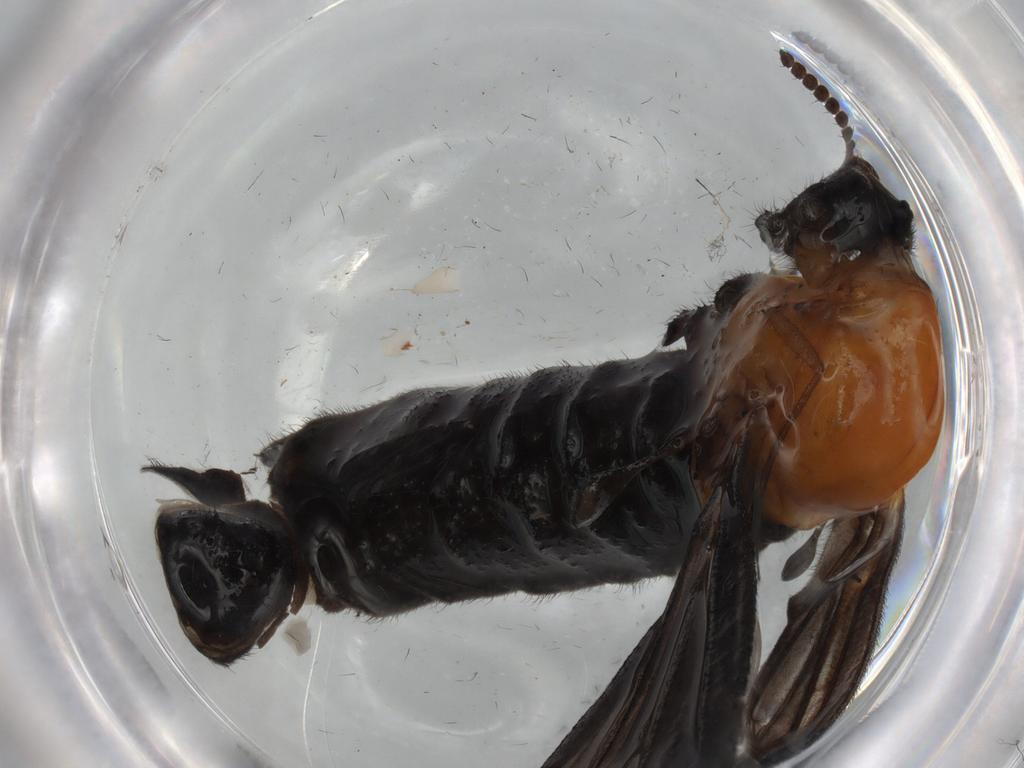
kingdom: Animalia
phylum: Arthropoda
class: Insecta
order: Diptera
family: Bibionidae
